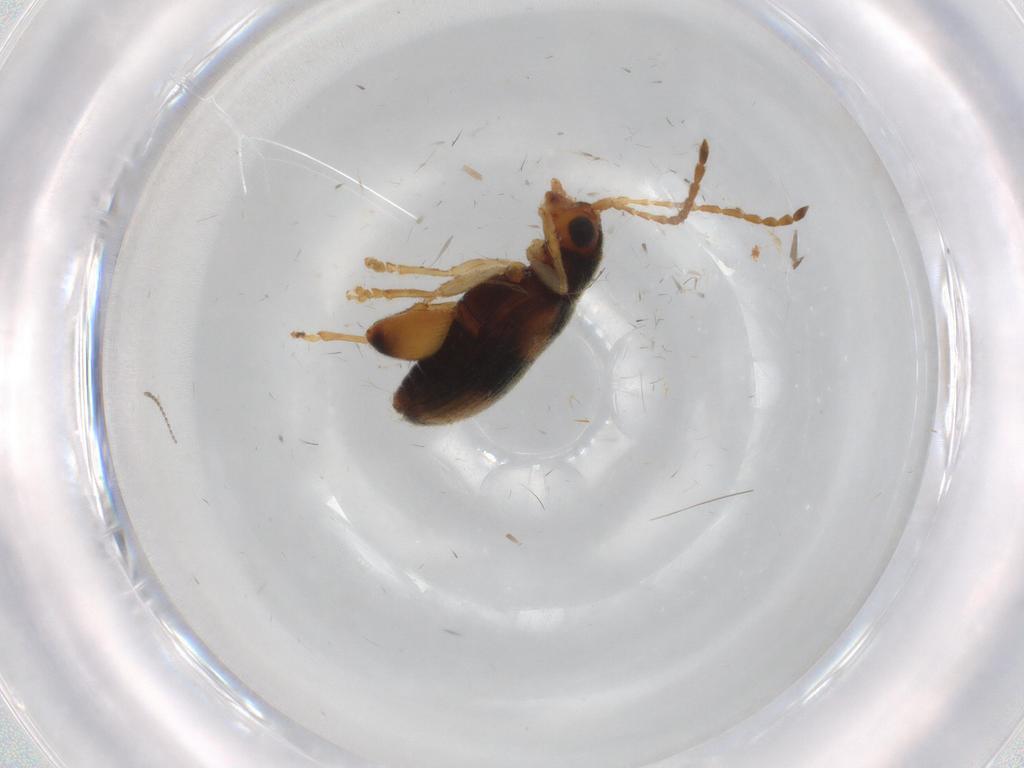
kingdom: Animalia
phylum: Arthropoda
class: Insecta
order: Coleoptera
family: Chrysomelidae
